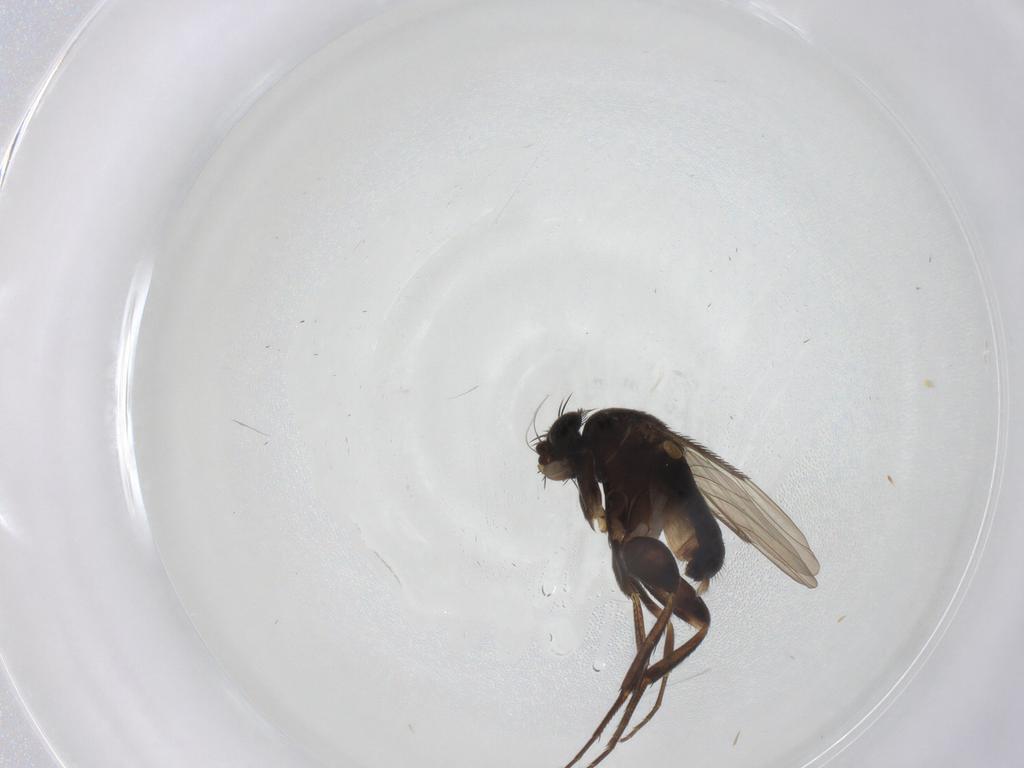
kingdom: Animalia
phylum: Arthropoda
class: Insecta
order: Diptera
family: Phoridae
